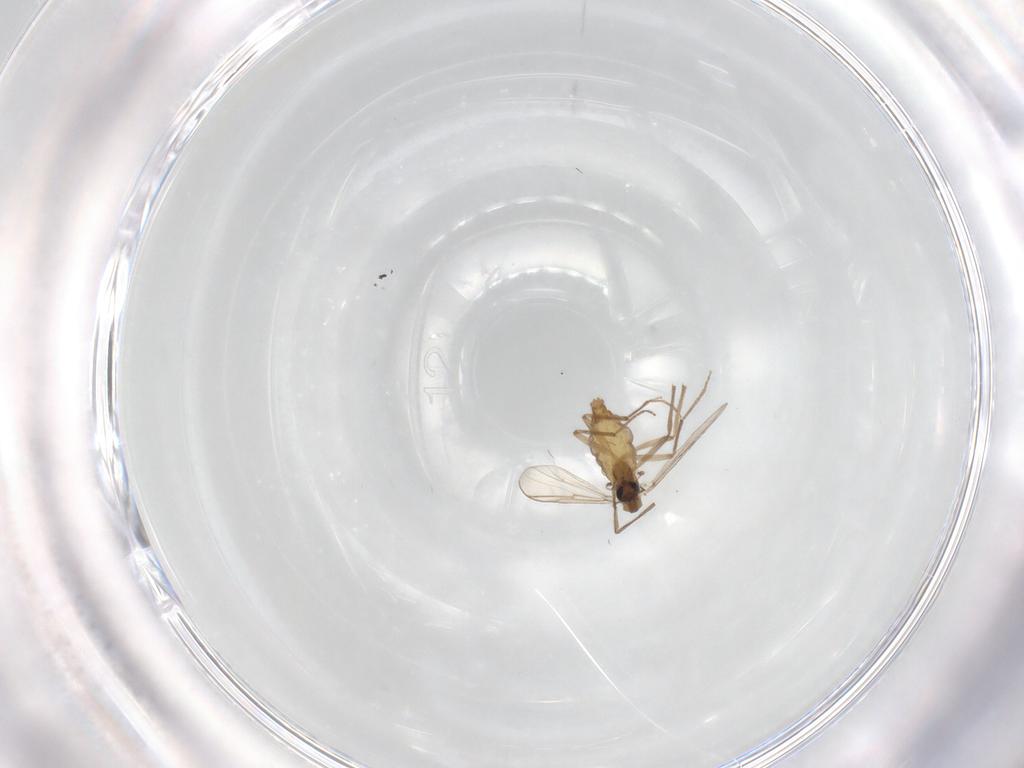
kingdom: Animalia
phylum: Arthropoda
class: Insecta
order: Diptera
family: Chironomidae
